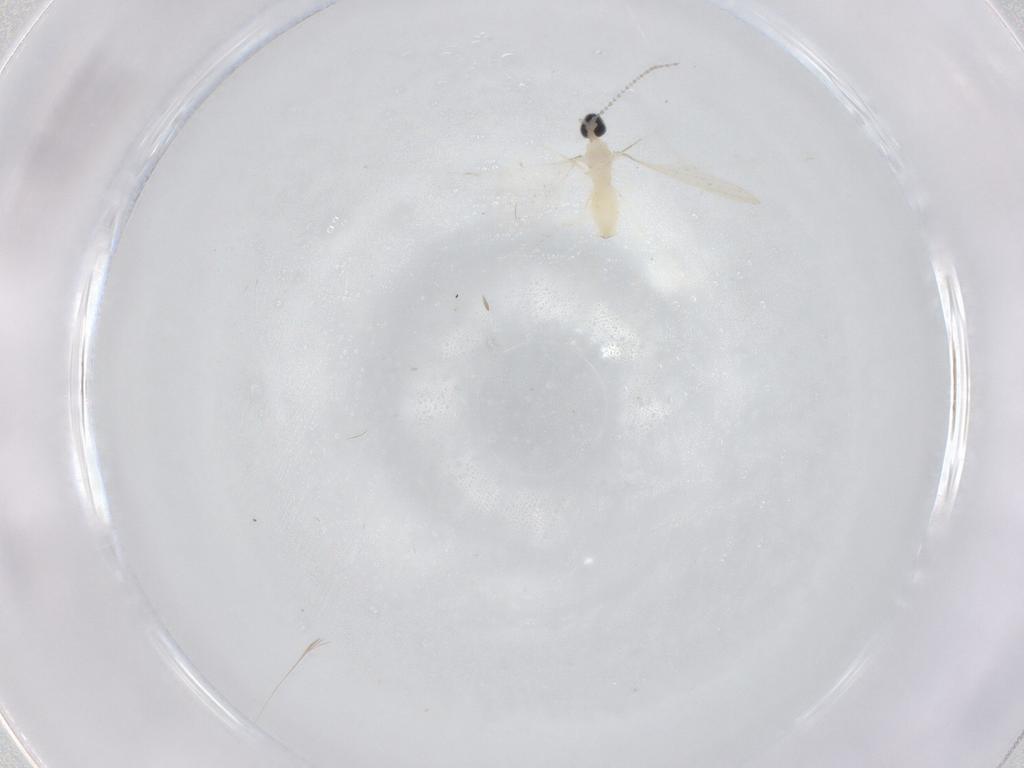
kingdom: Animalia
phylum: Arthropoda
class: Insecta
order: Diptera
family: Cecidomyiidae
